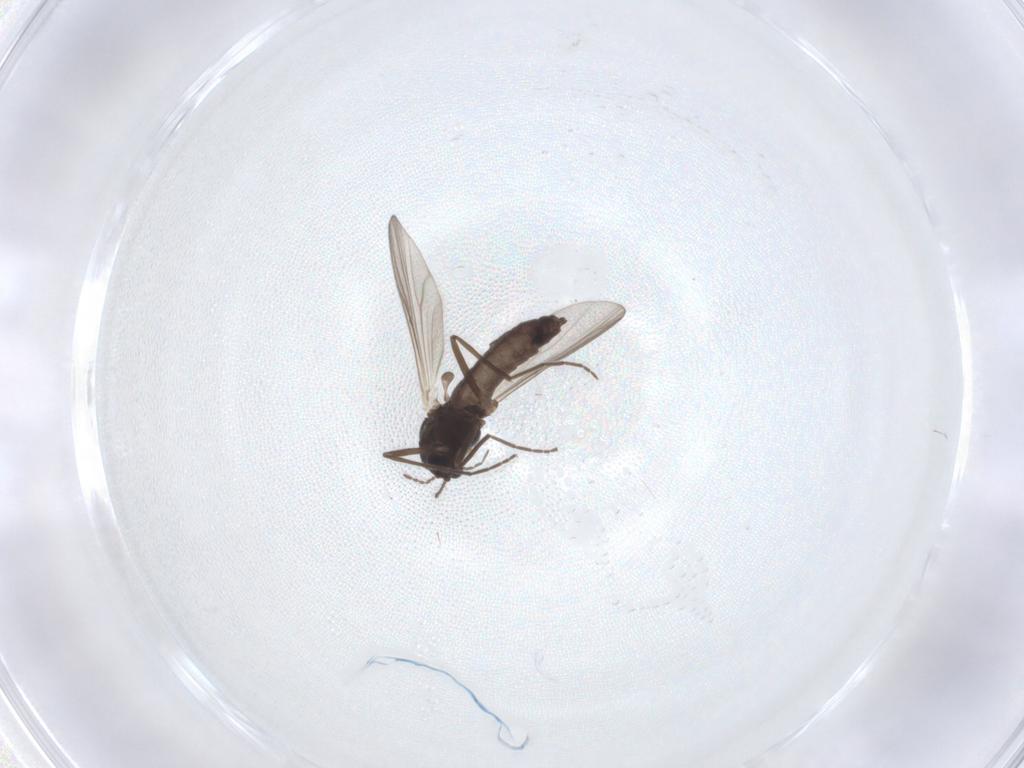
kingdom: Animalia
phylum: Arthropoda
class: Insecta
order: Diptera
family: Chironomidae
